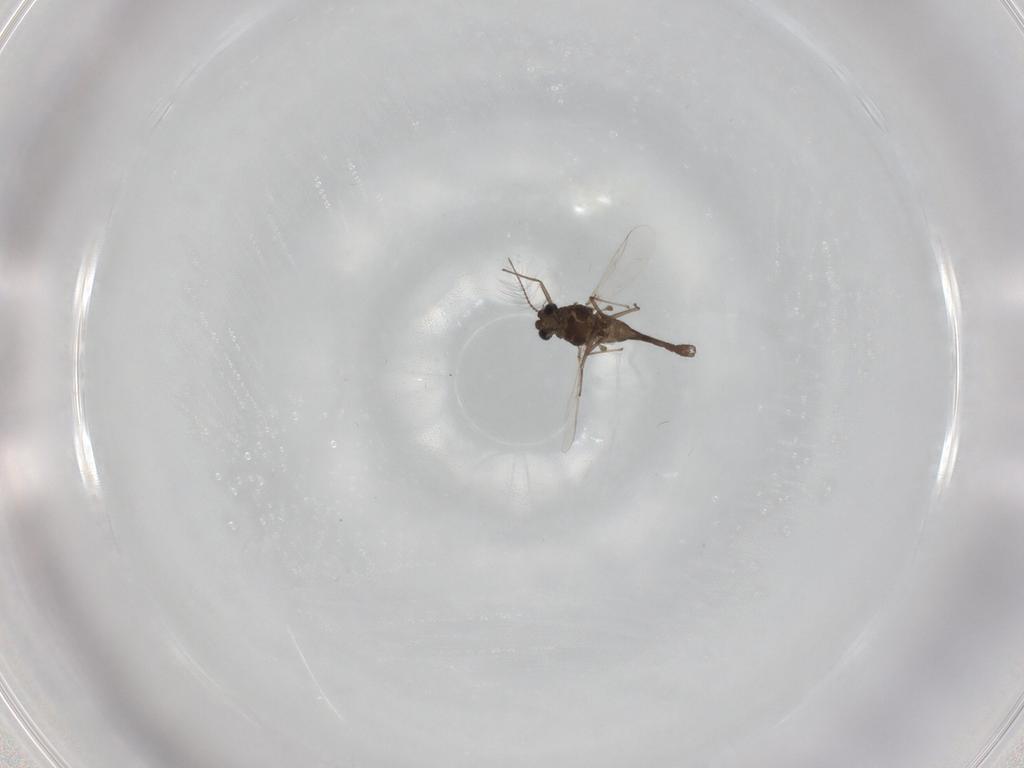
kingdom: Animalia
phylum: Arthropoda
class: Insecta
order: Diptera
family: Chironomidae
